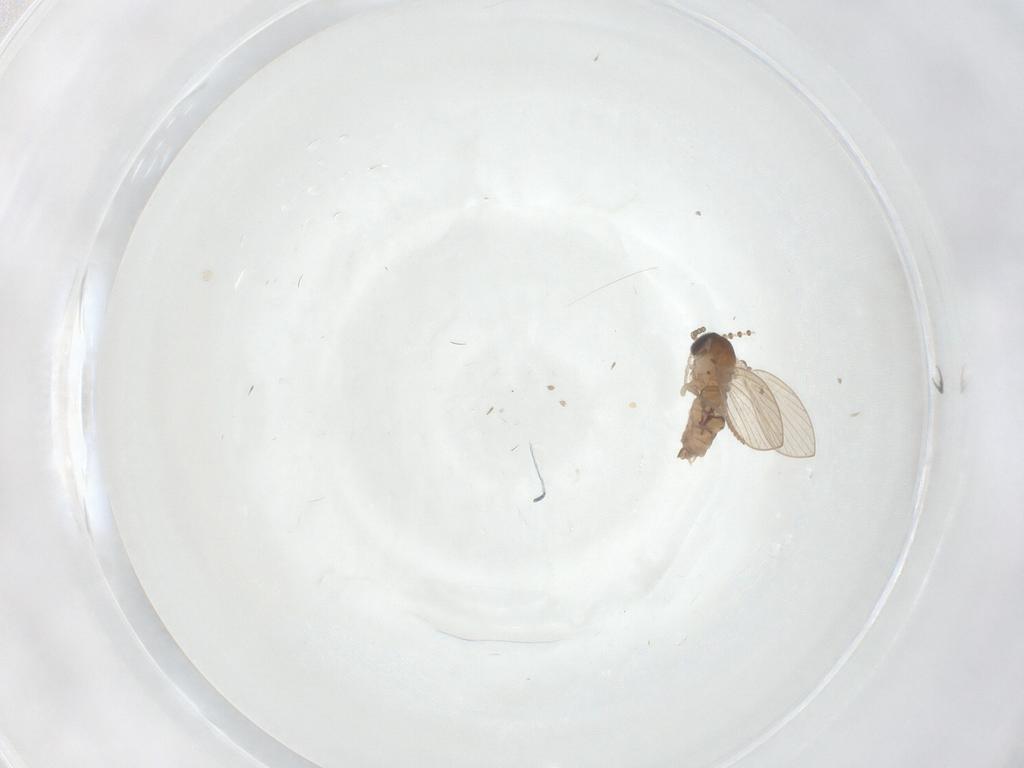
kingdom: Animalia
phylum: Arthropoda
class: Insecta
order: Diptera
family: Psychodidae
